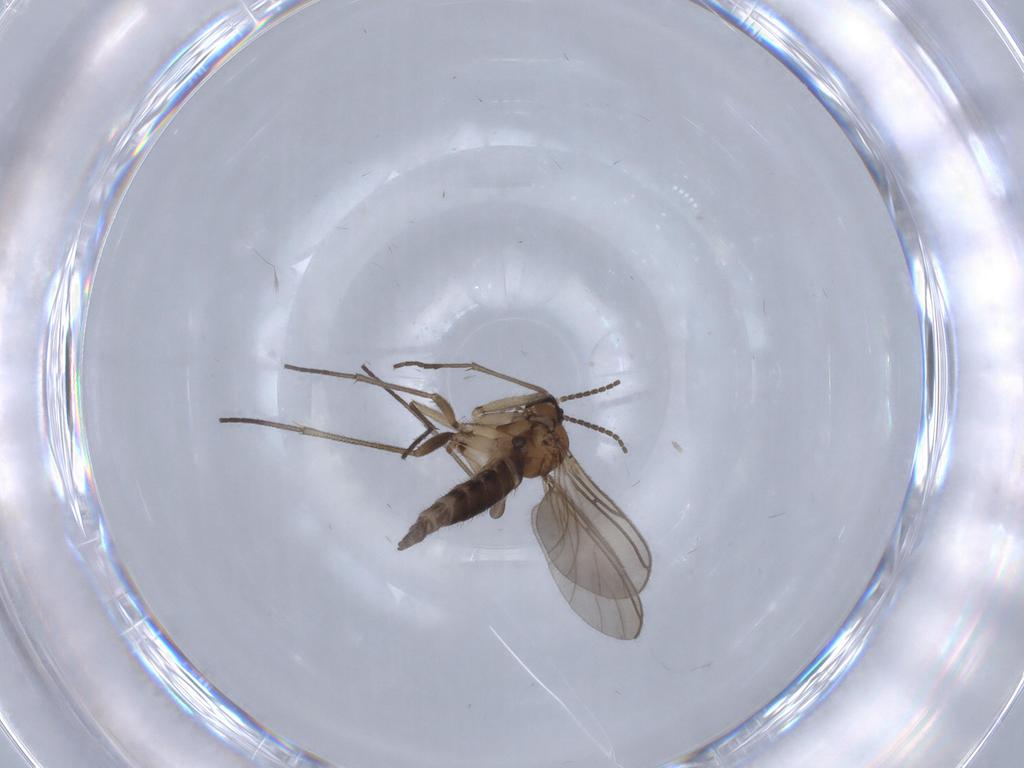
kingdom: Animalia
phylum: Arthropoda
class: Insecta
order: Diptera
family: Sciaridae
